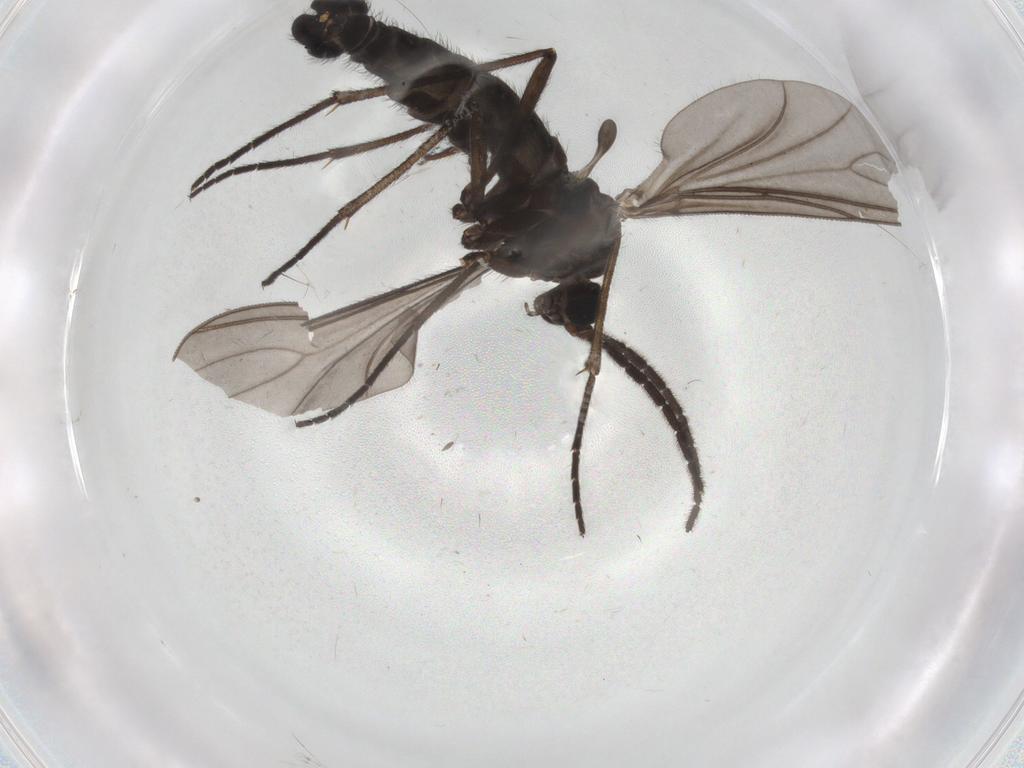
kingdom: Animalia
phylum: Arthropoda
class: Insecta
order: Diptera
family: Sciaridae
